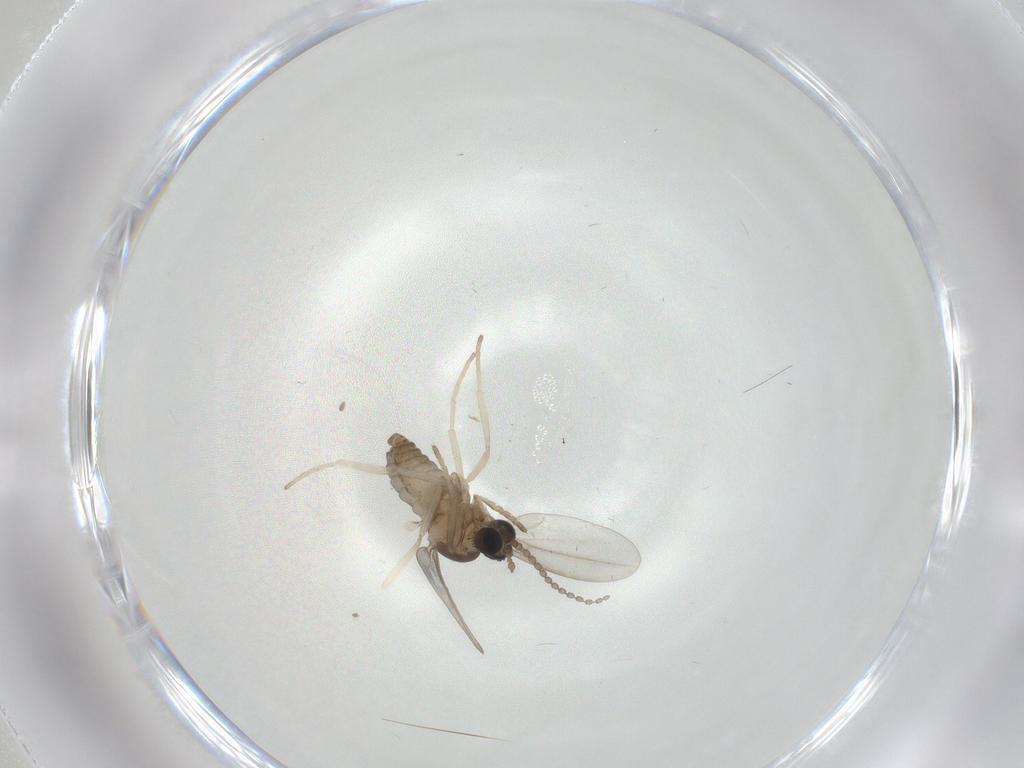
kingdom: Animalia
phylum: Arthropoda
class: Insecta
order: Diptera
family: Cecidomyiidae
